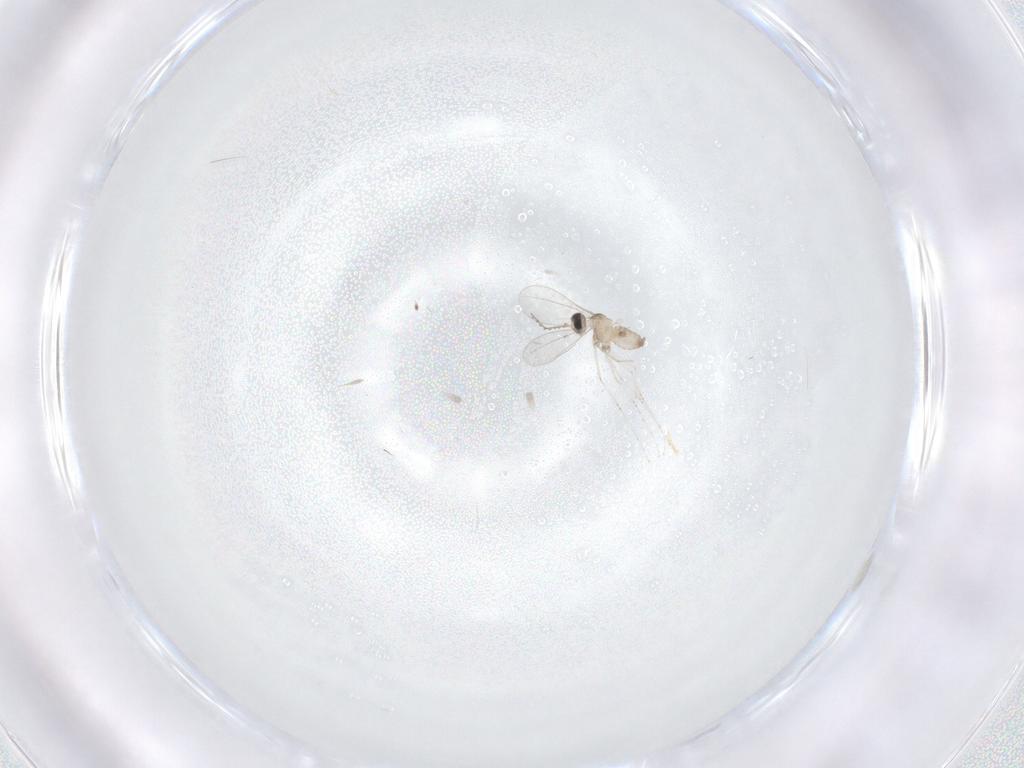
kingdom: Animalia
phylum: Arthropoda
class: Insecta
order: Diptera
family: Cecidomyiidae
